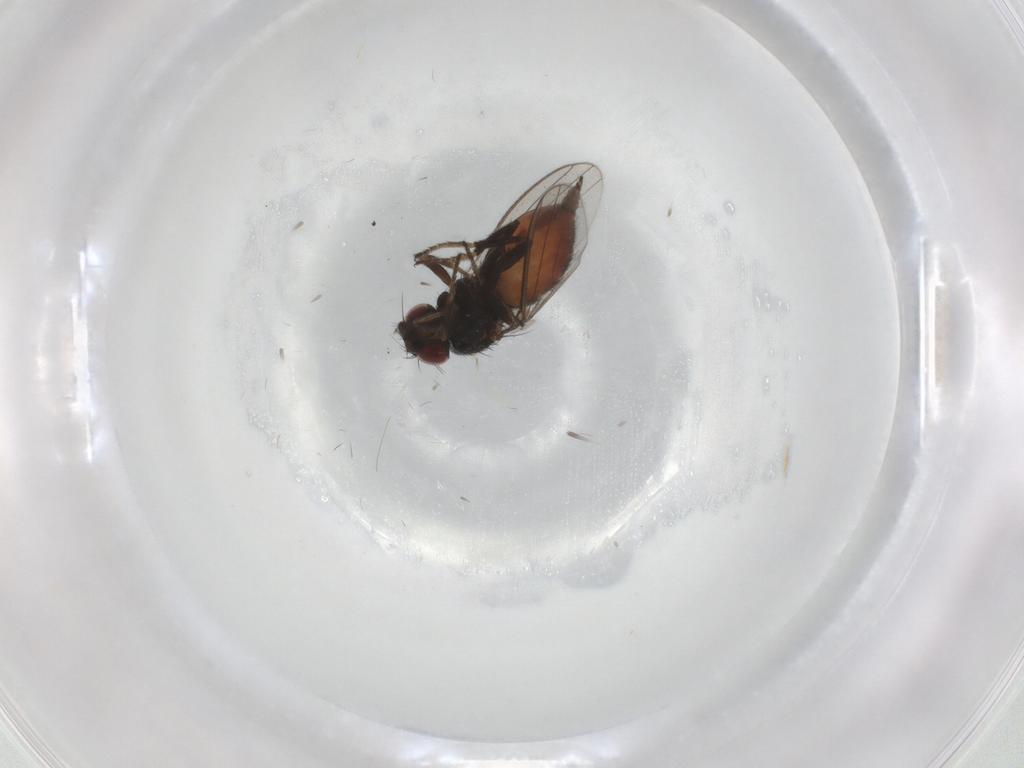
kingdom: Animalia
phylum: Arthropoda
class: Insecta
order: Diptera
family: Milichiidae
